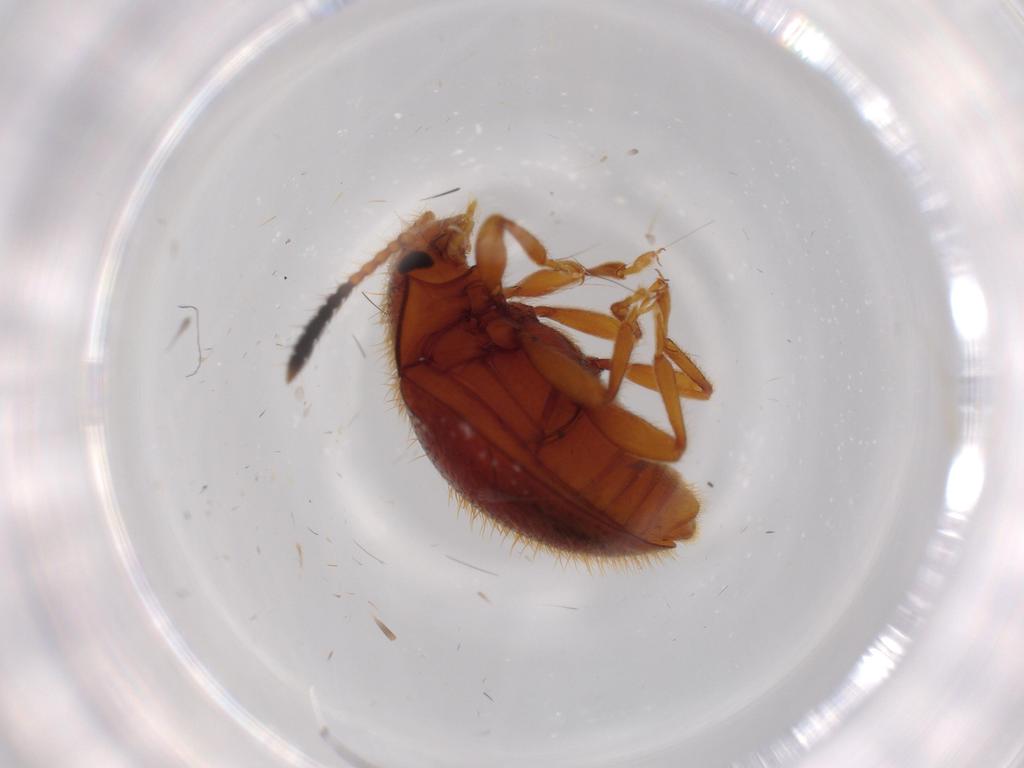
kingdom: Animalia
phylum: Arthropoda
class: Insecta
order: Coleoptera
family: Endomychidae
